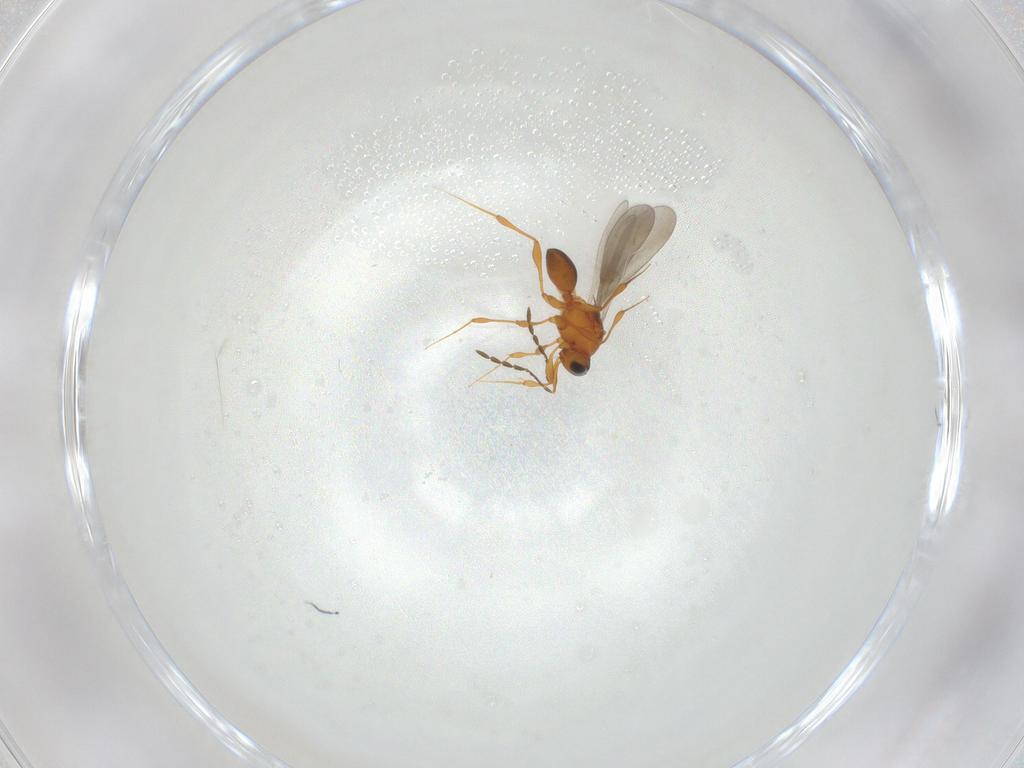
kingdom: Animalia
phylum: Arthropoda
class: Insecta
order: Hymenoptera
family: Platygastridae
